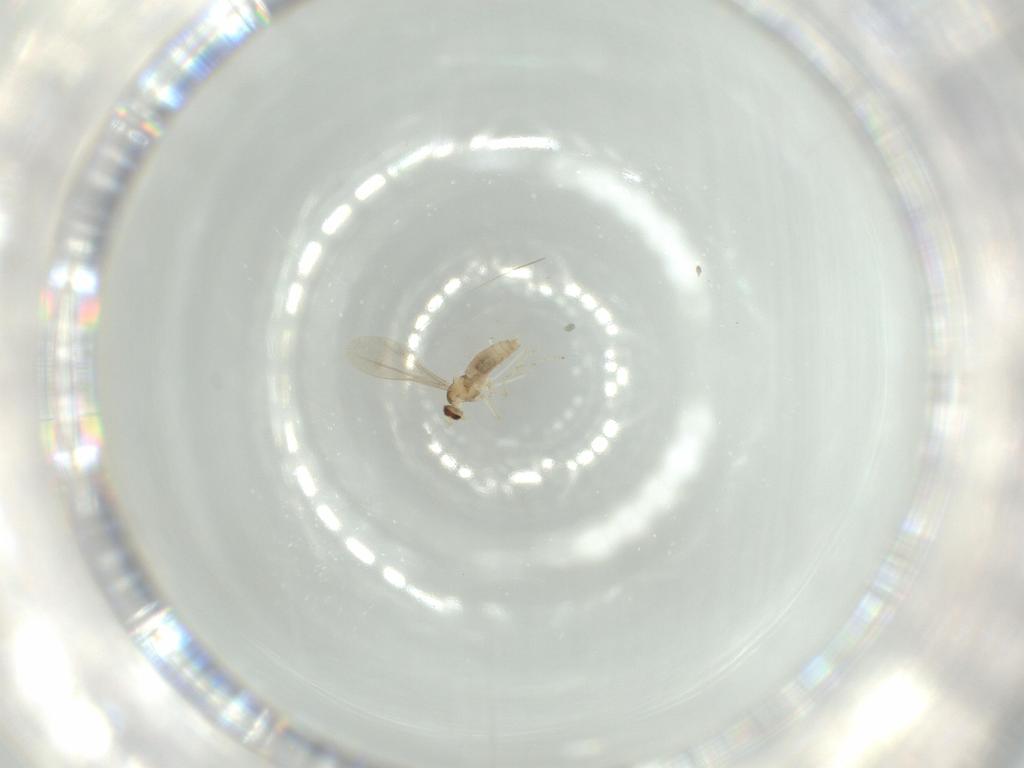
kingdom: Animalia
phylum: Arthropoda
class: Insecta
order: Diptera
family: Cecidomyiidae
